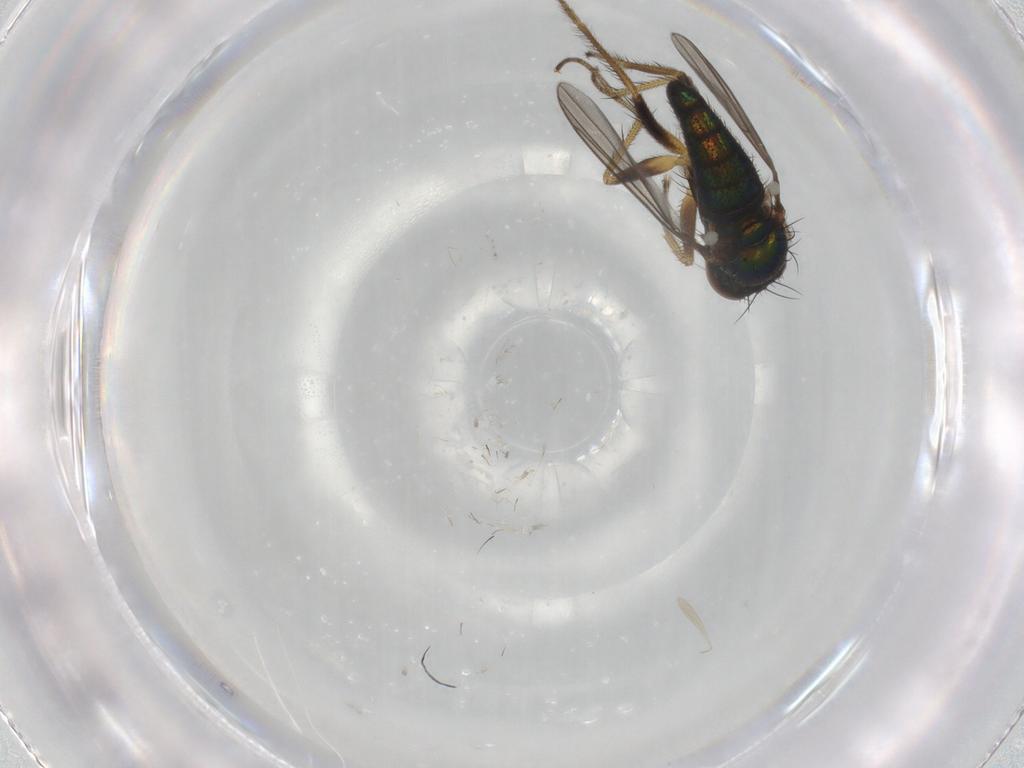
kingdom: Animalia
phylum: Arthropoda
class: Insecta
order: Diptera
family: Dolichopodidae
